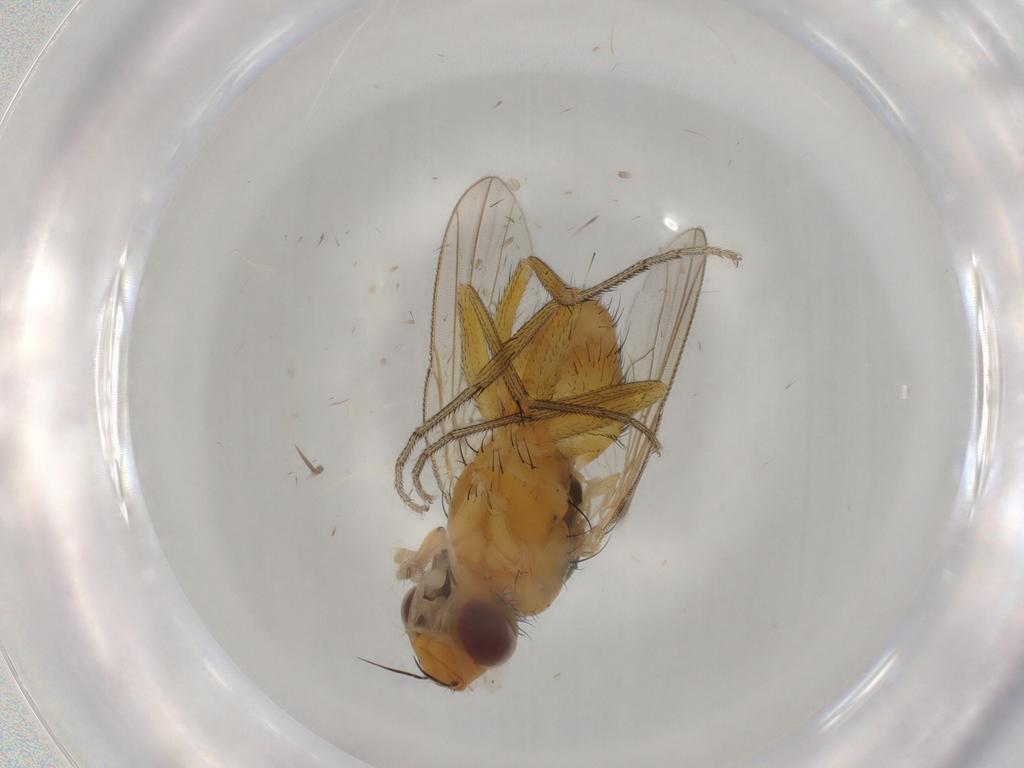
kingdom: Animalia
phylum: Arthropoda
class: Insecta
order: Diptera
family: Muscidae
